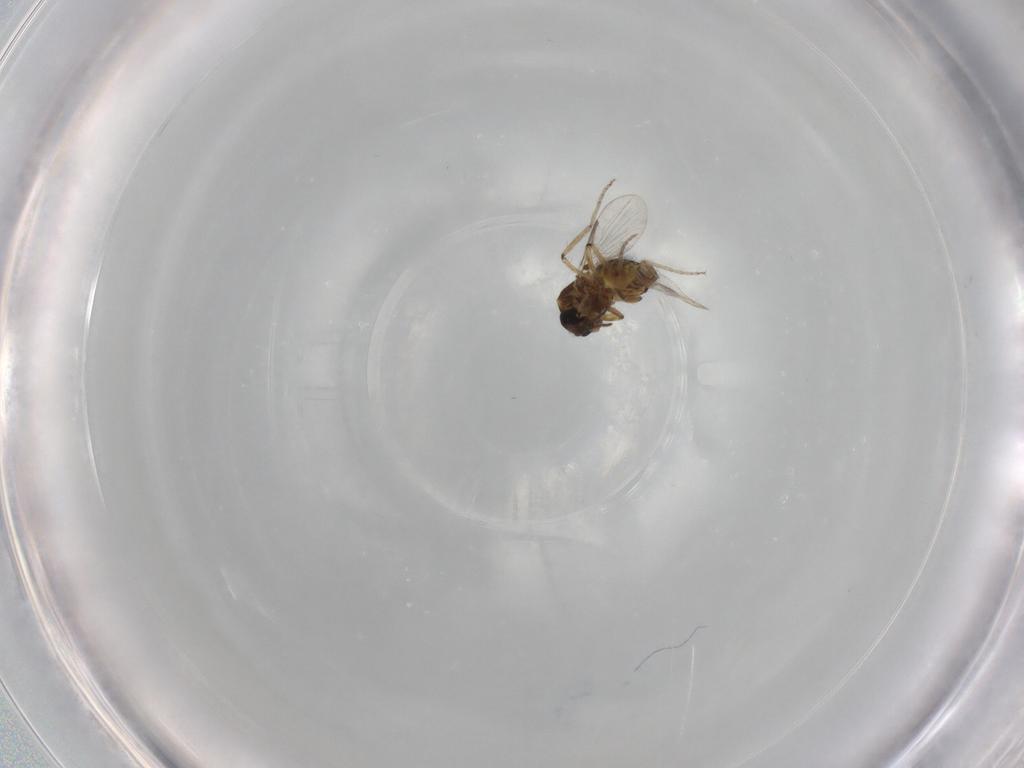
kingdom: Animalia
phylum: Arthropoda
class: Insecta
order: Diptera
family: Ceratopogonidae
